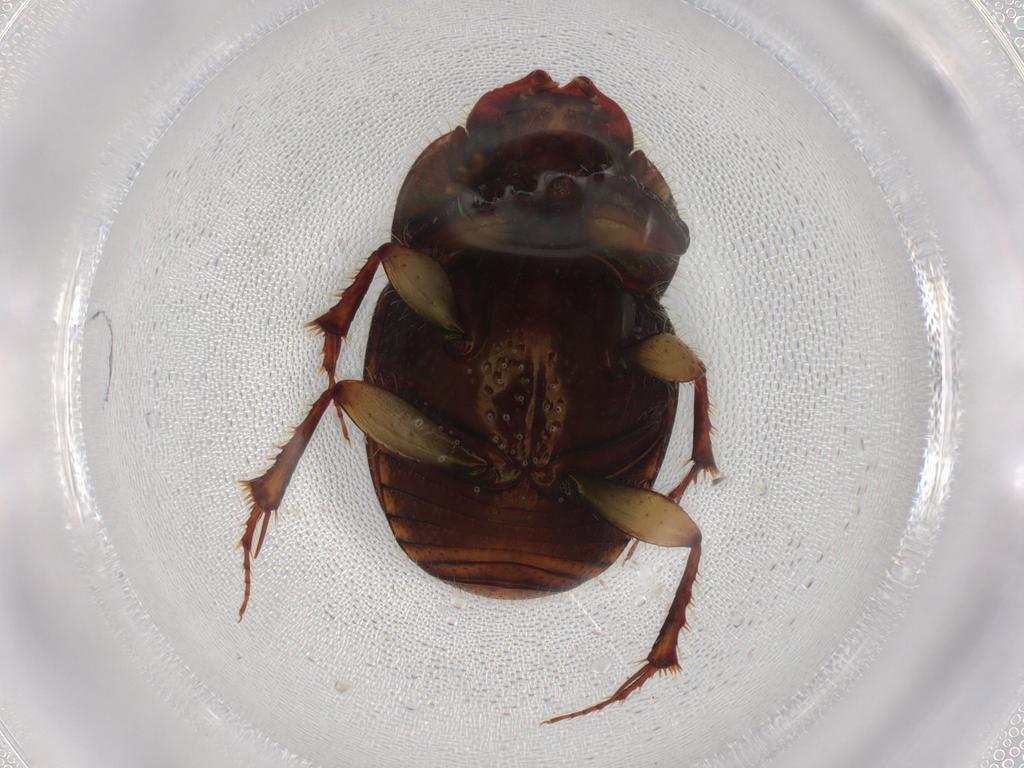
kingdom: Animalia
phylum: Arthropoda
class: Insecta
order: Coleoptera
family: Scarabaeidae
